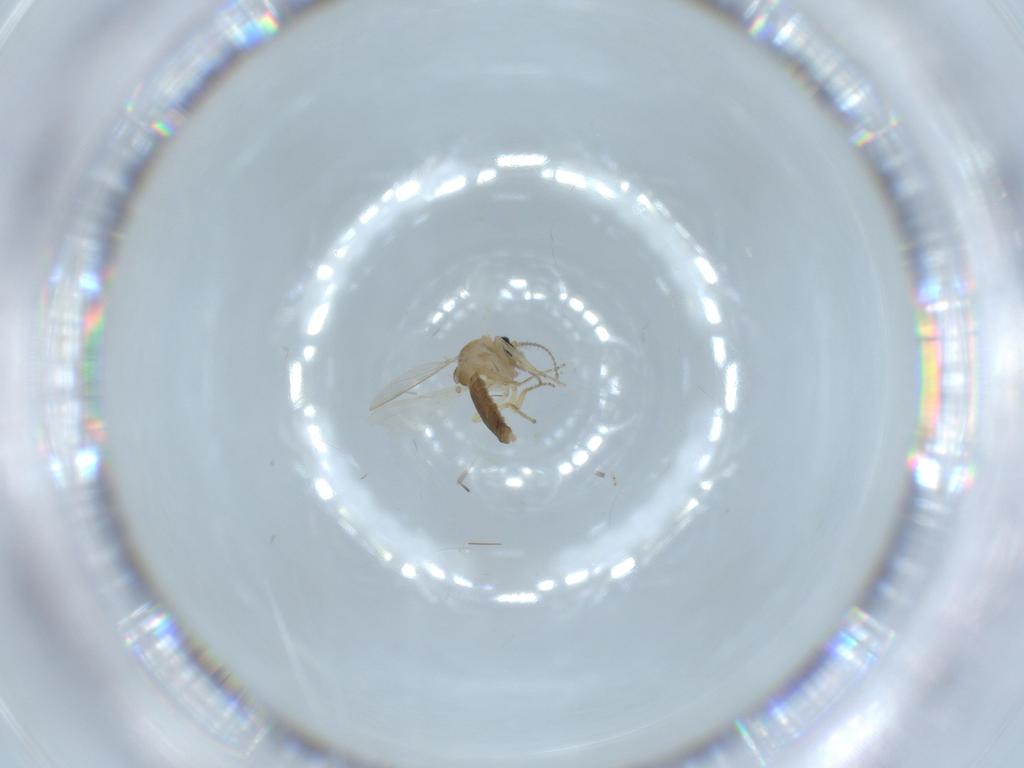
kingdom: Animalia
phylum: Arthropoda
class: Insecta
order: Diptera
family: Ceratopogonidae
